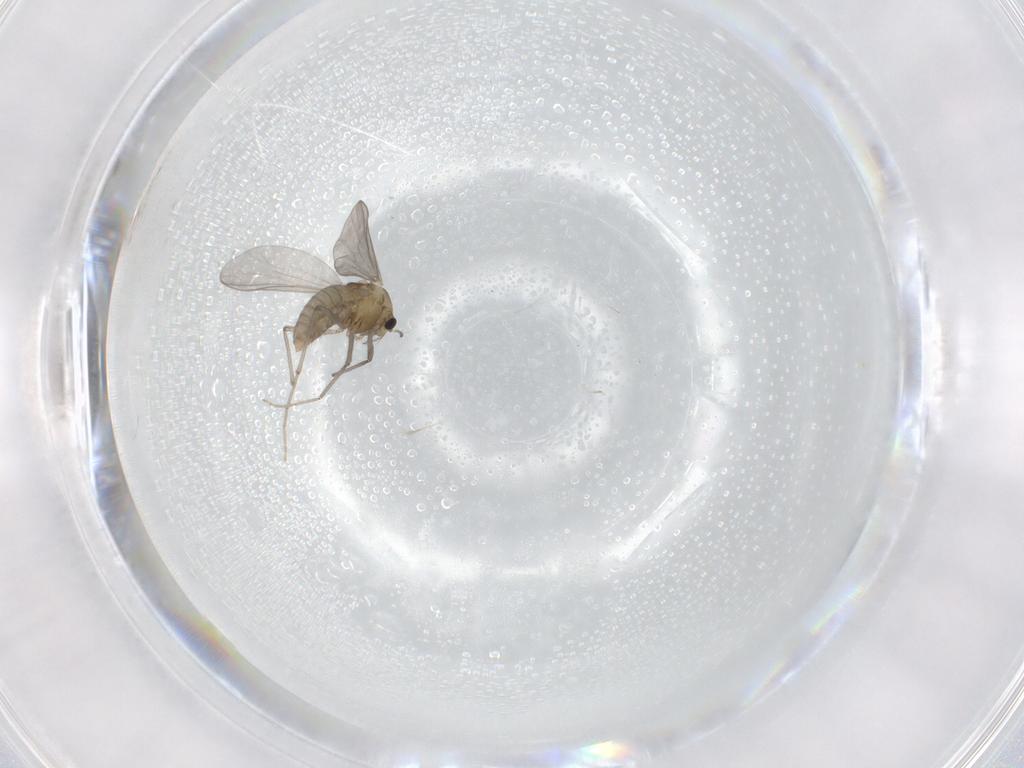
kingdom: Animalia
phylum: Arthropoda
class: Insecta
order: Diptera
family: Chironomidae
